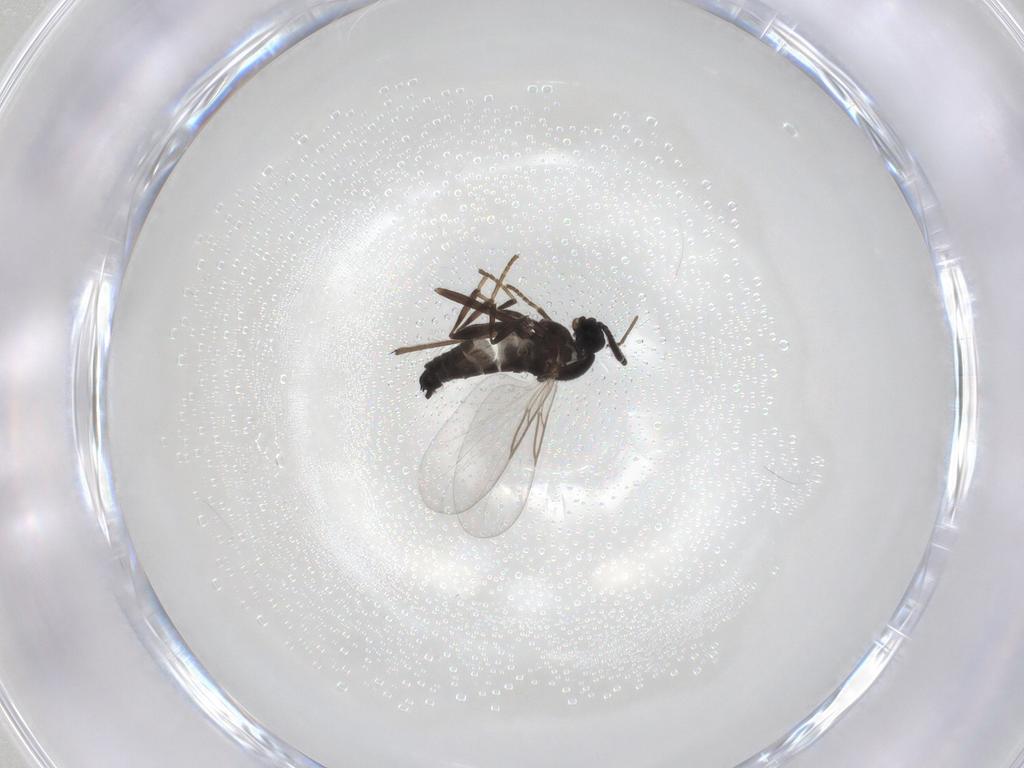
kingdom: Animalia
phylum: Arthropoda
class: Insecta
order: Diptera
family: Scatopsidae
